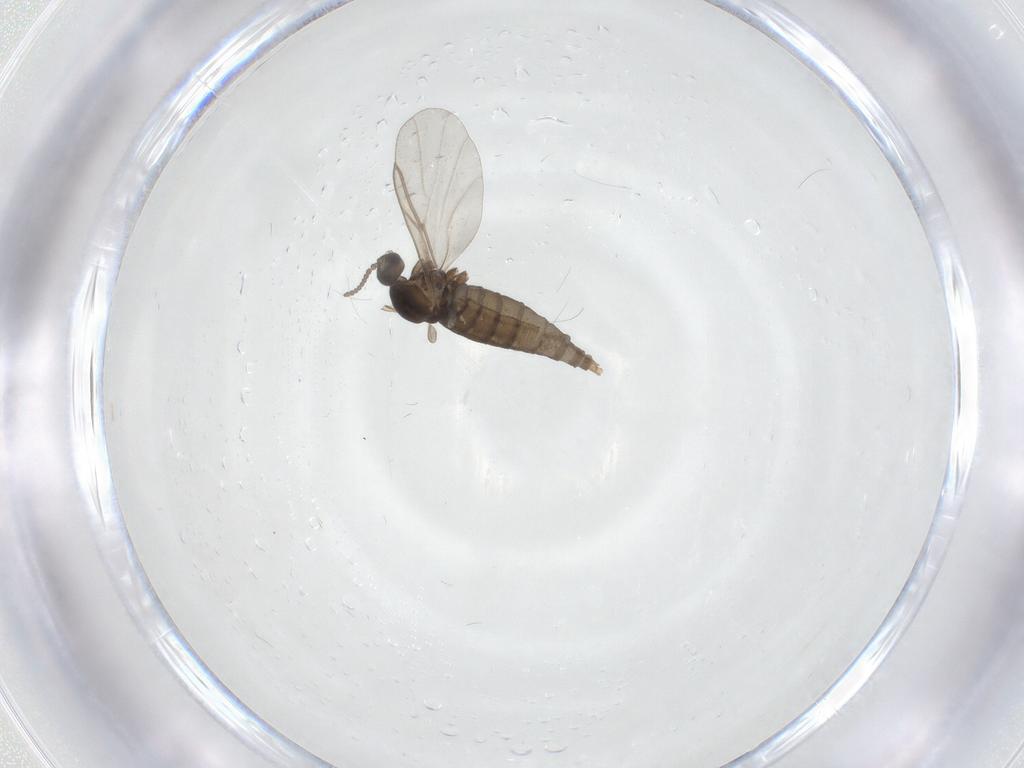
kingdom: Animalia
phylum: Arthropoda
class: Insecta
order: Diptera
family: Cecidomyiidae
